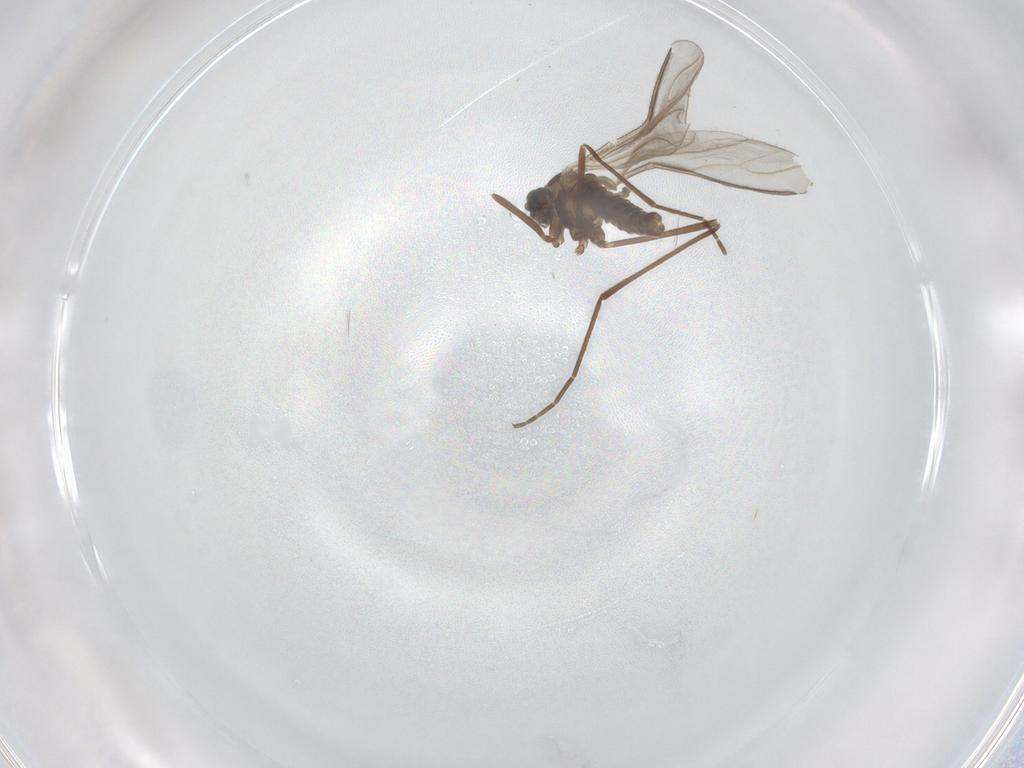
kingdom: Animalia
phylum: Arthropoda
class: Insecta
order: Diptera
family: Cecidomyiidae
